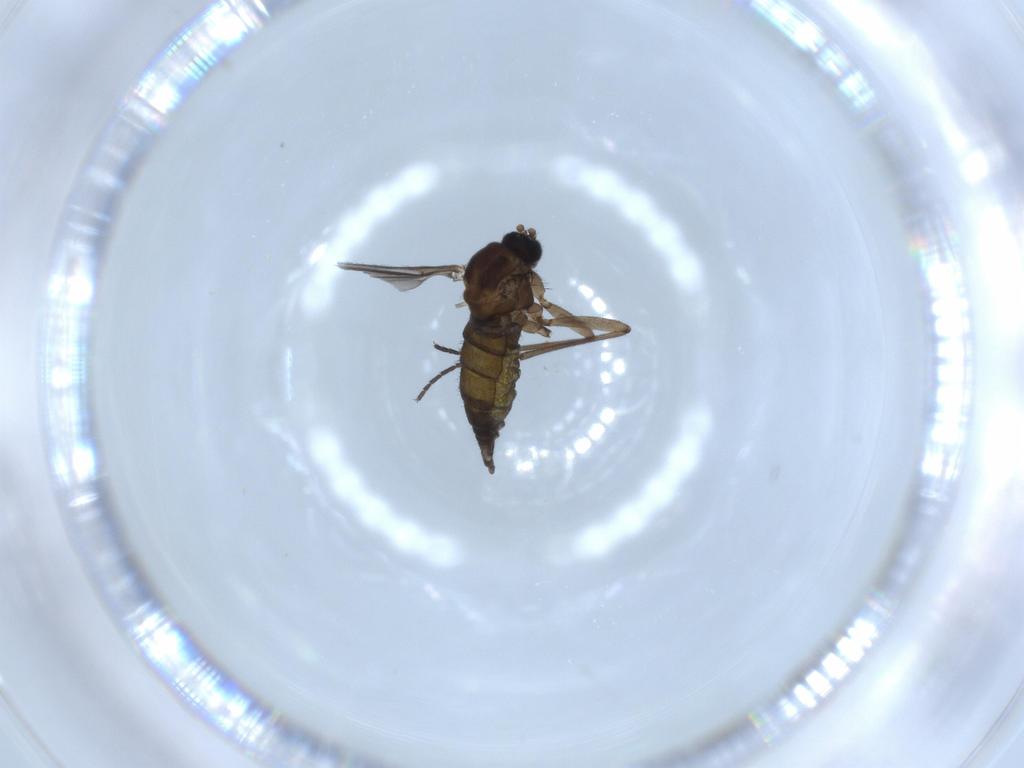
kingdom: Animalia
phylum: Arthropoda
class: Insecta
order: Diptera
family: Sciaridae
